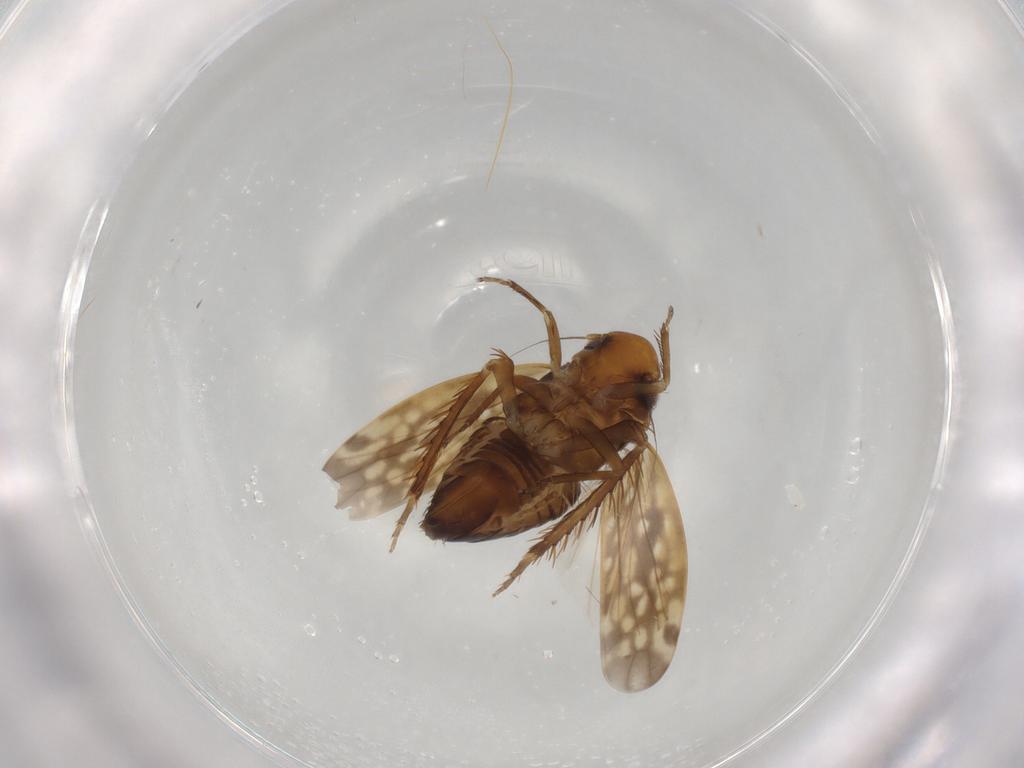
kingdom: Animalia
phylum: Arthropoda
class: Insecta
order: Hemiptera
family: Cicadellidae
